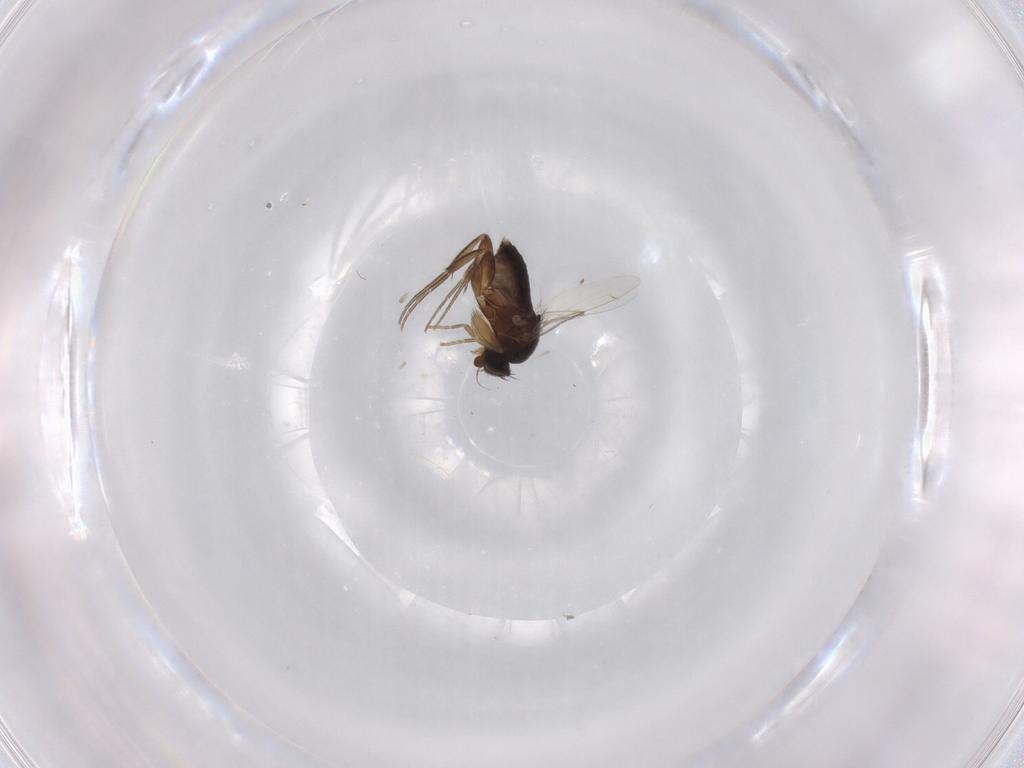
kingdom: Animalia
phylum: Arthropoda
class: Insecta
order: Diptera
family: Phoridae
